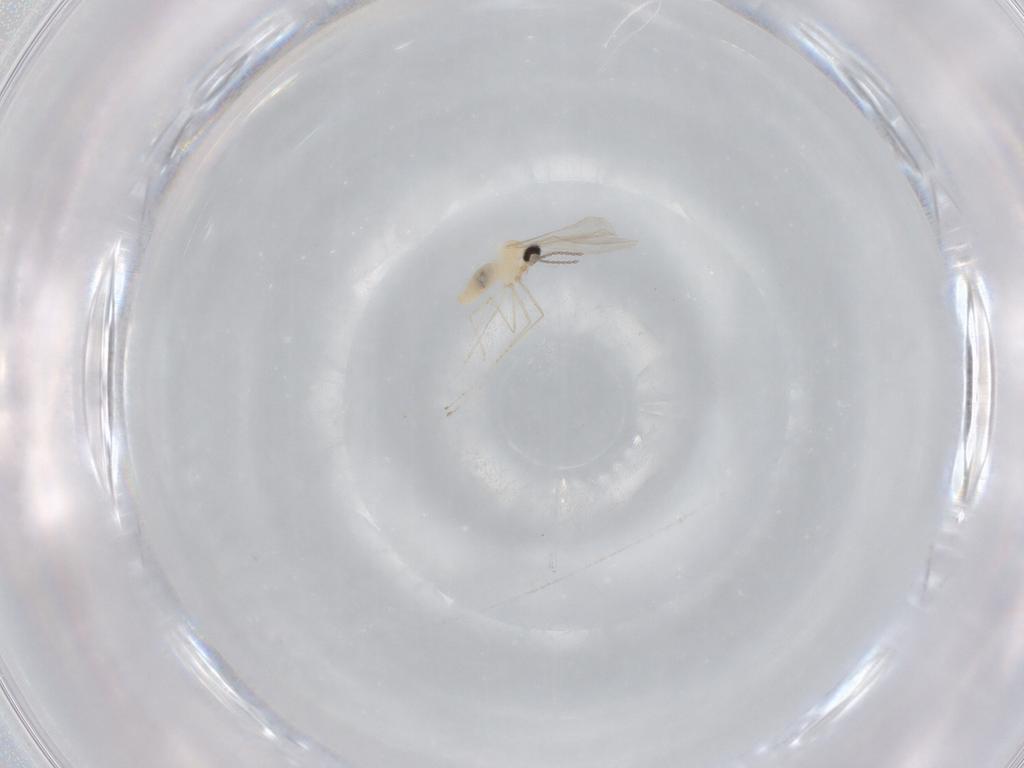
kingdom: Animalia
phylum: Arthropoda
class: Insecta
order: Diptera
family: Cecidomyiidae
